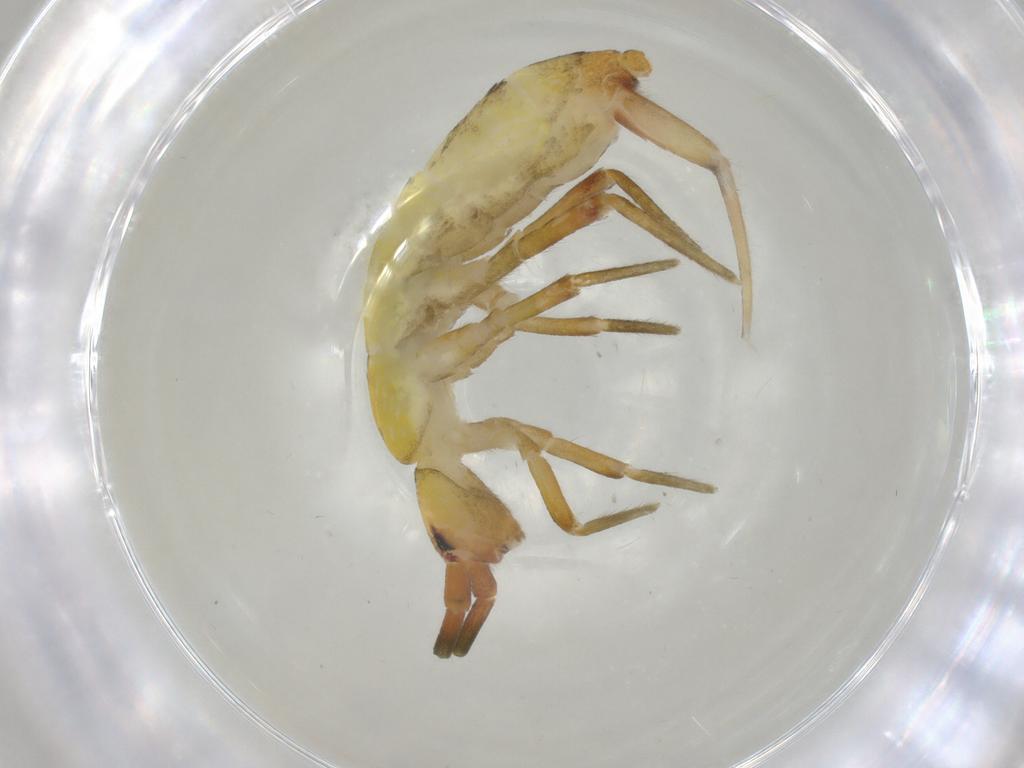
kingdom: Animalia
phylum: Arthropoda
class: Collembola
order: Entomobryomorpha
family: Tomoceridae
